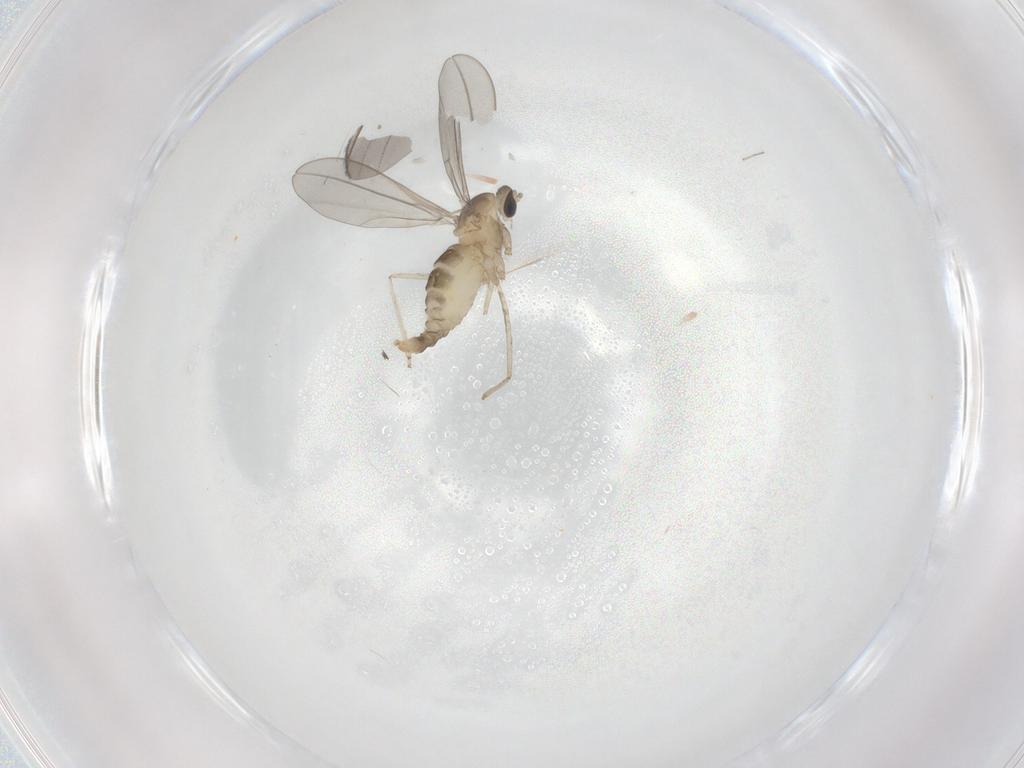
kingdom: Animalia
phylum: Arthropoda
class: Insecta
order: Diptera
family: Cecidomyiidae
